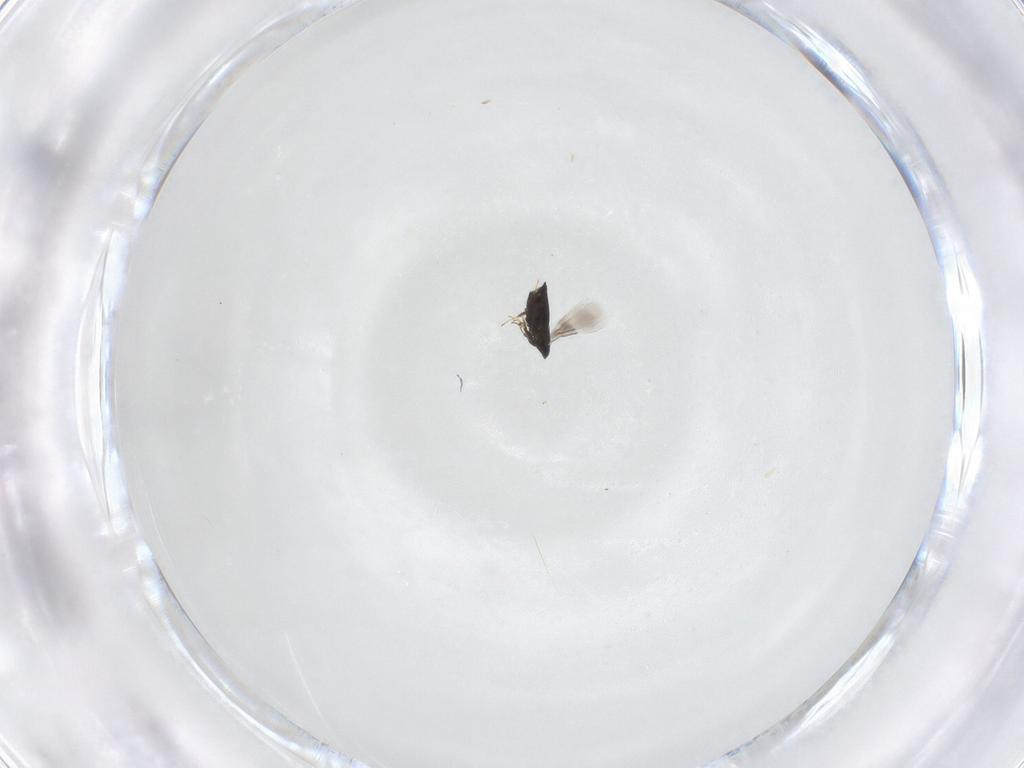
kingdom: Animalia
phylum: Arthropoda
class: Insecta
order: Hymenoptera
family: Signiphoridae
